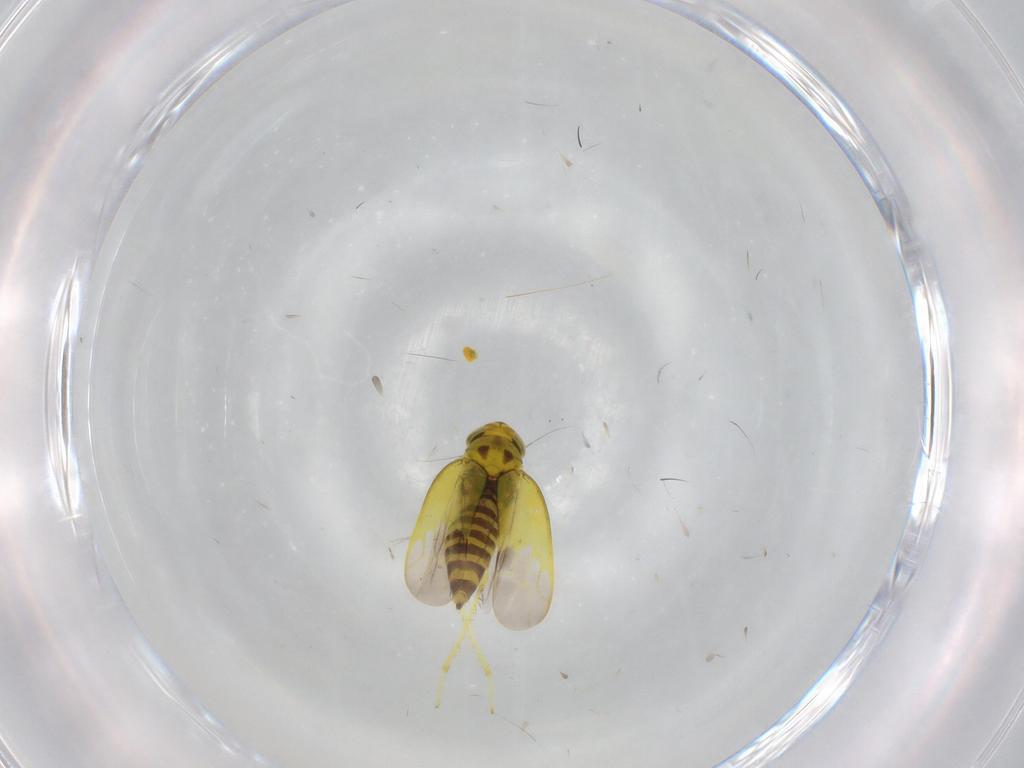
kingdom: Animalia
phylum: Arthropoda
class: Insecta
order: Hemiptera
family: Cicadellidae
